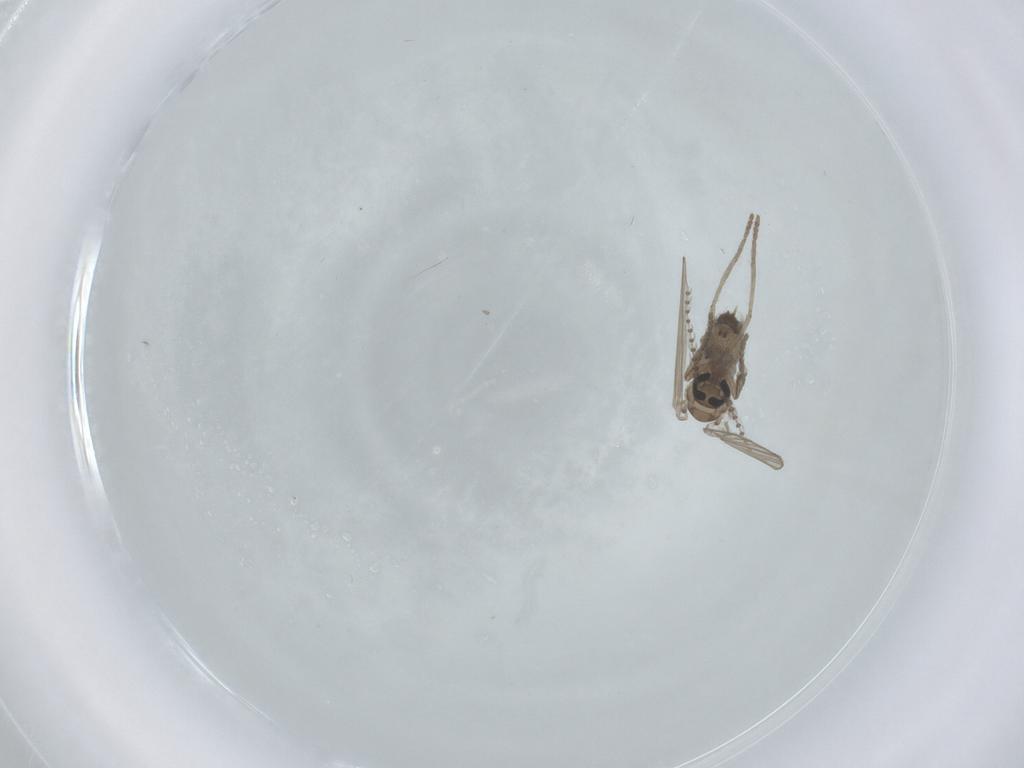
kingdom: Animalia
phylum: Arthropoda
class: Insecta
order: Diptera
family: Psychodidae
